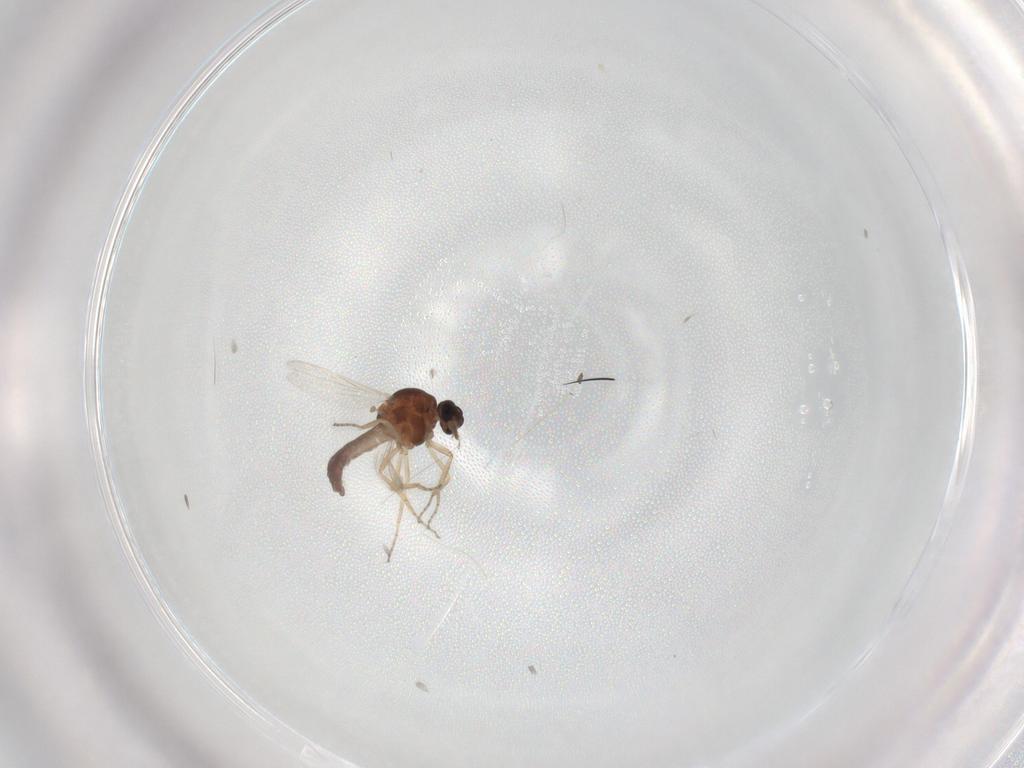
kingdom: Animalia
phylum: Arthropoda
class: Insecta
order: Diptera
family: Ceratopogonidae
